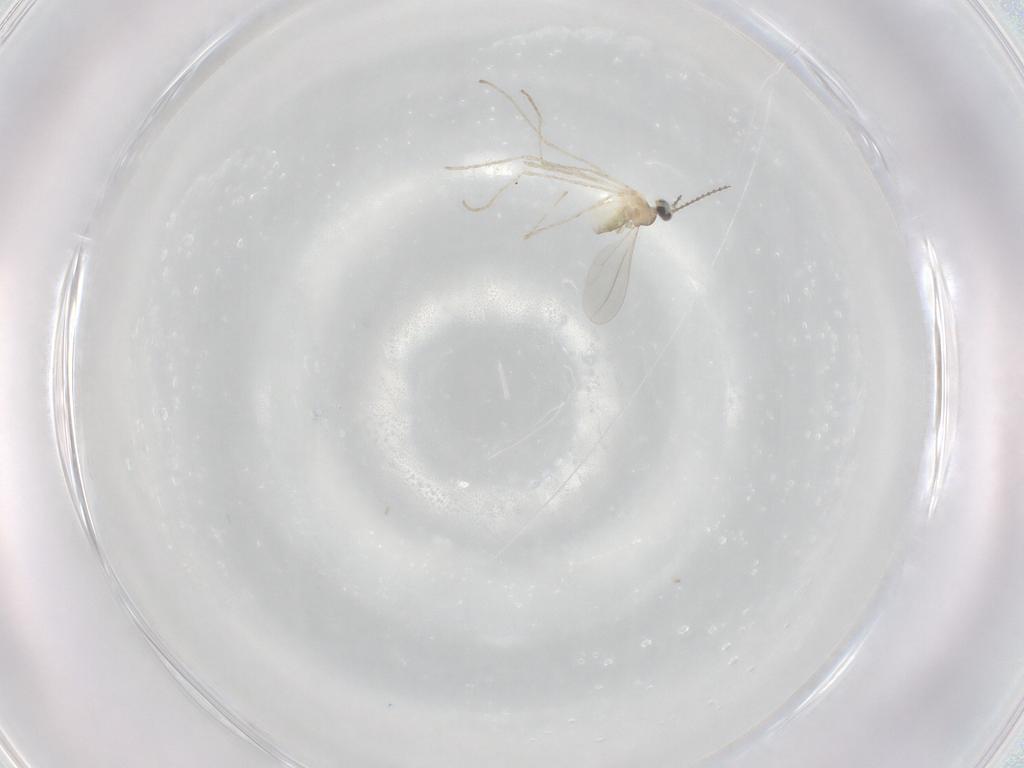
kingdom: Animalia
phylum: Arthropoda
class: Insecta
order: Diptera
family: Cecidomyiidae
